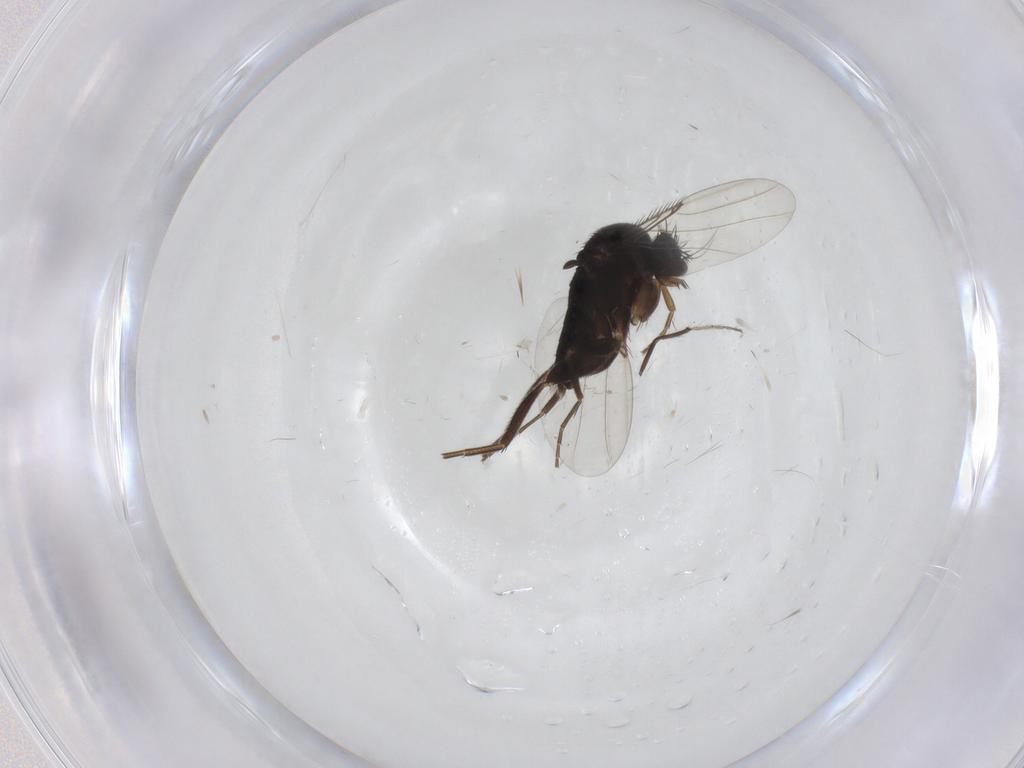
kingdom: Animalia
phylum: Arthropoda
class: Insecta
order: Diptera
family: Phoridae
